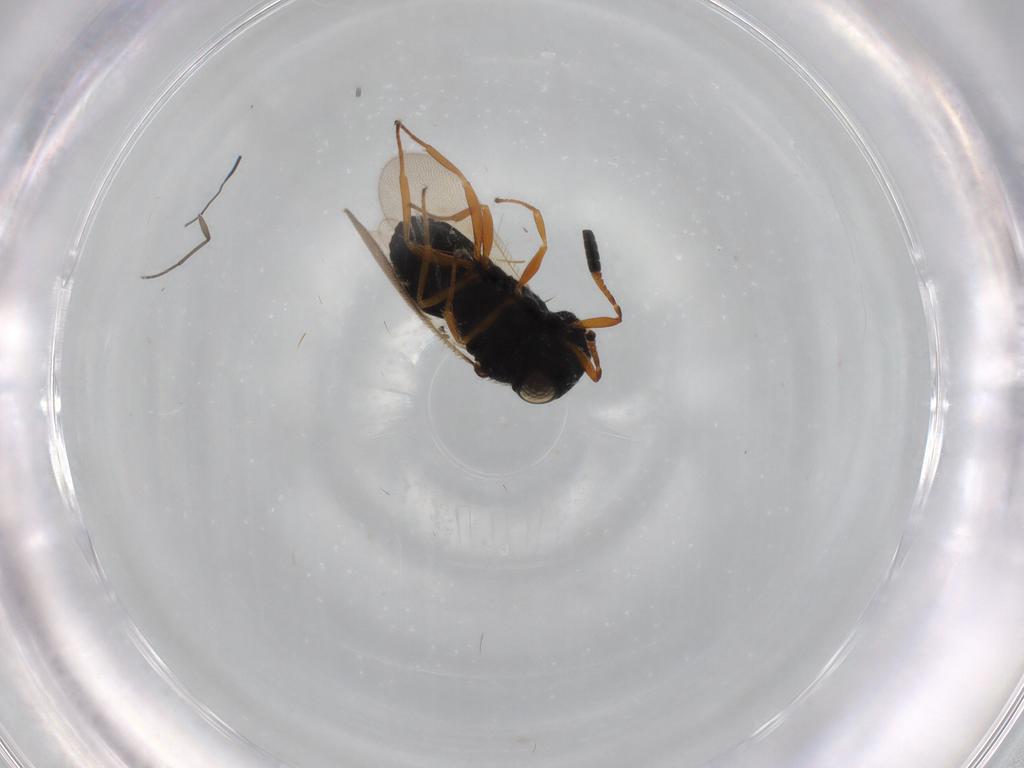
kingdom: Animalia
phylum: Arthropoda
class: Insecta
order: Hymenoptera
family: Scelionidae
